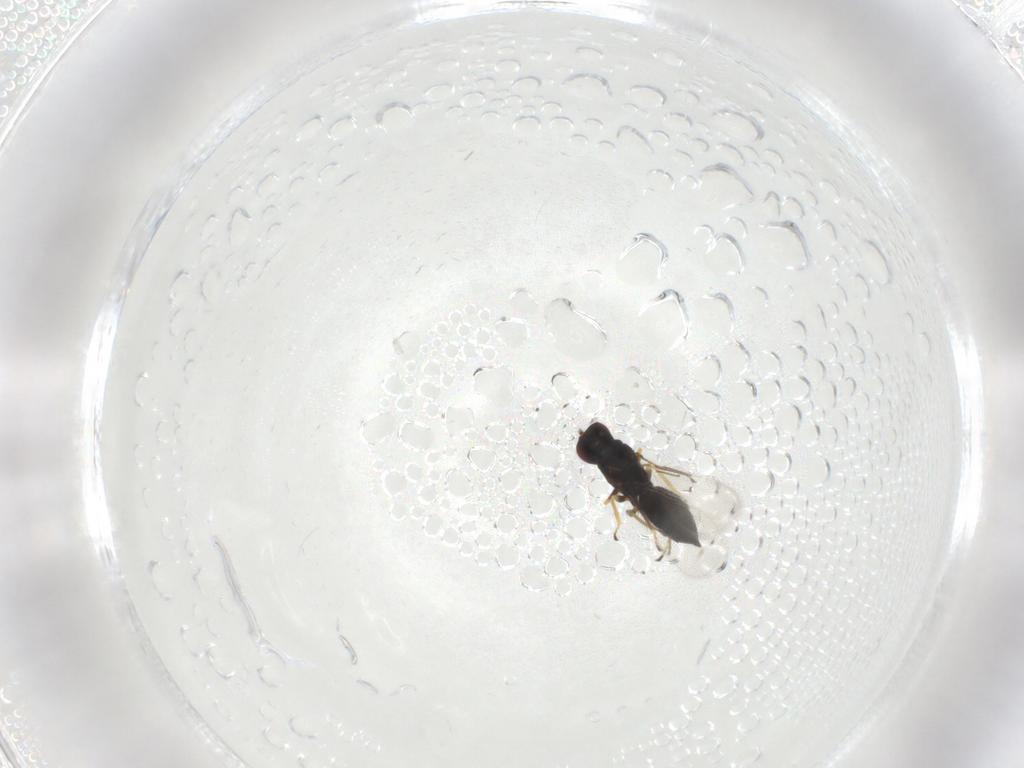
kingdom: Animalia
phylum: Arthropoda
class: Insecta
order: Hymenoptera
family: Eulophidae
